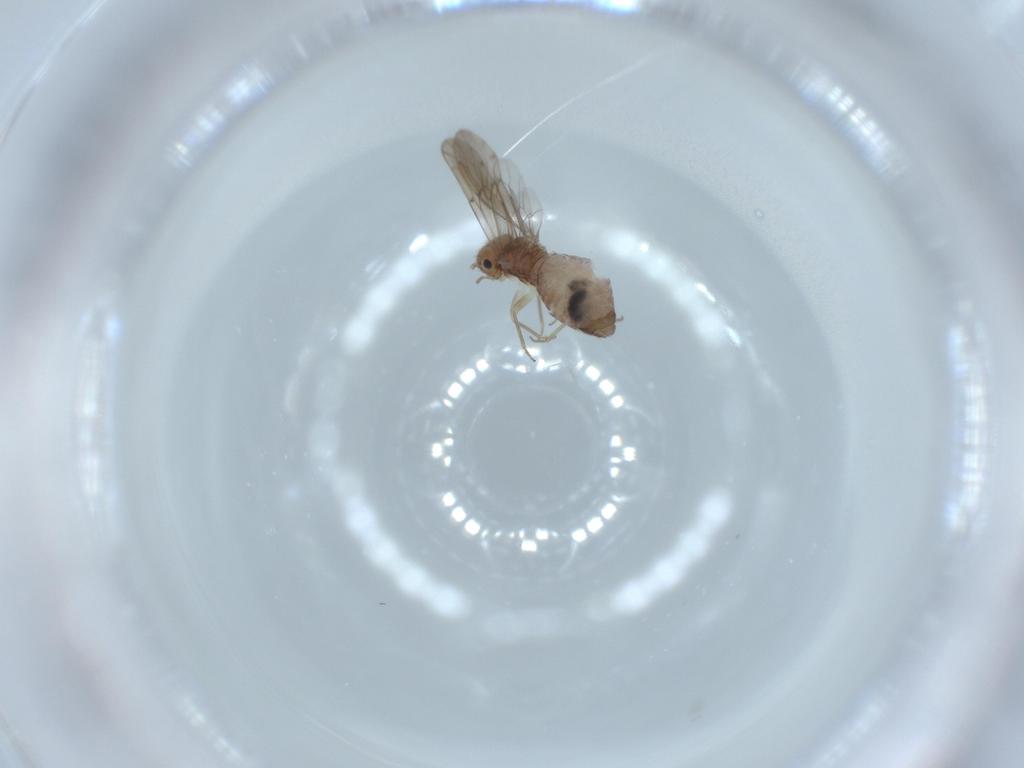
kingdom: Animalia
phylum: Arthropoda
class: Insecta
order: Psocodea
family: Ectopsocidae
